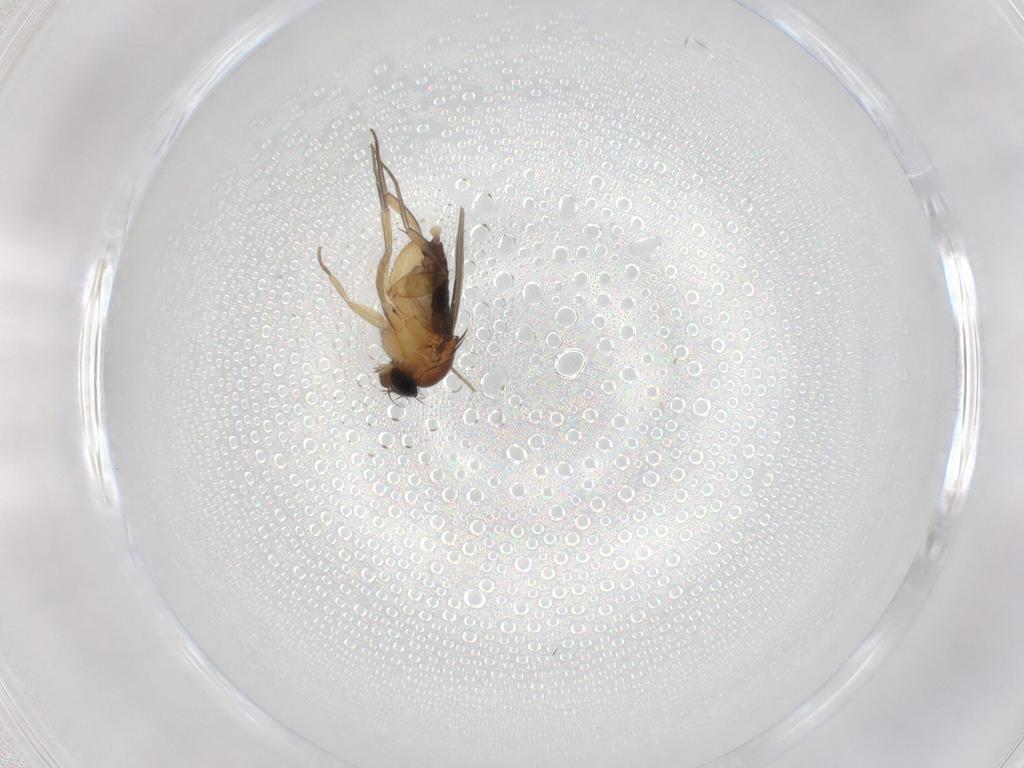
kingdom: Animalia
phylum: Arthropoda
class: Insecta
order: Diptera
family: Phoridae
